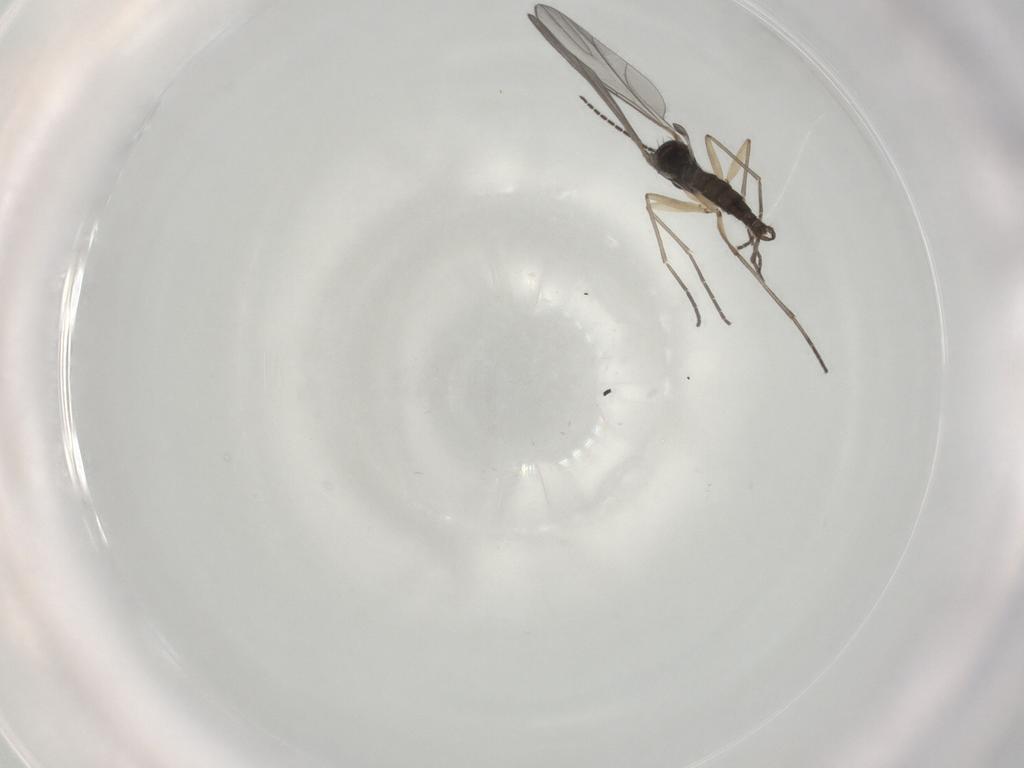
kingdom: Animalia
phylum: Arthropoda
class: Insecta
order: Diptera
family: Sciaridae
